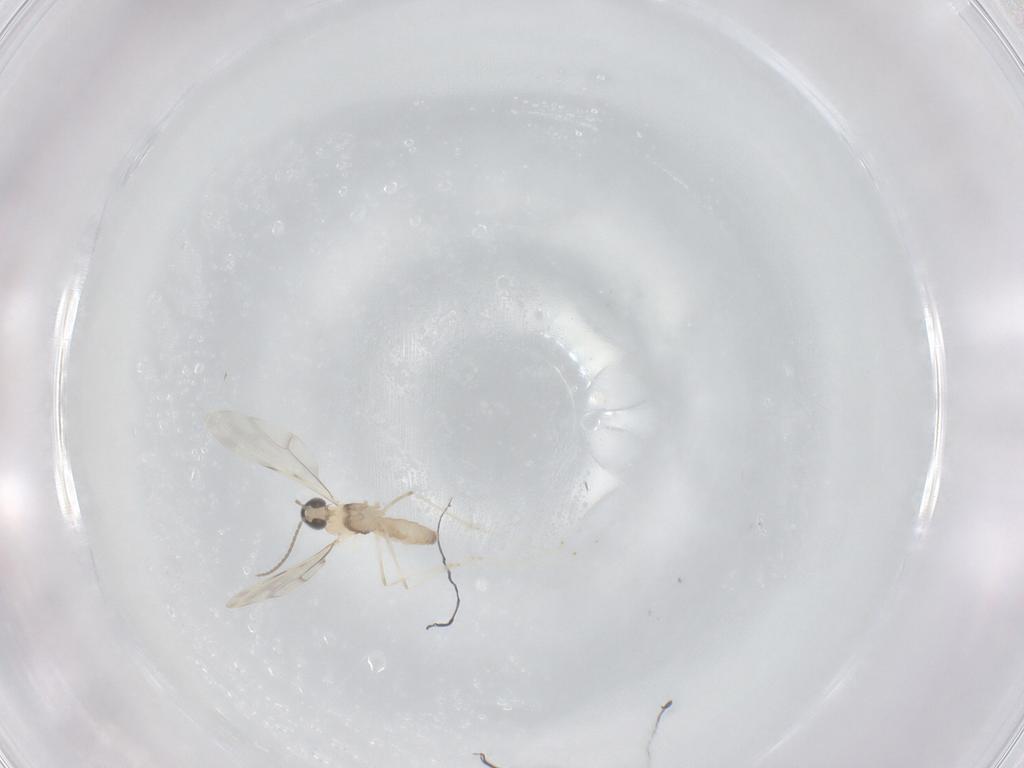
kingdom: Animalia
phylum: Arthropoda
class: Insecta
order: Diptera
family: Cecidomyiidae
